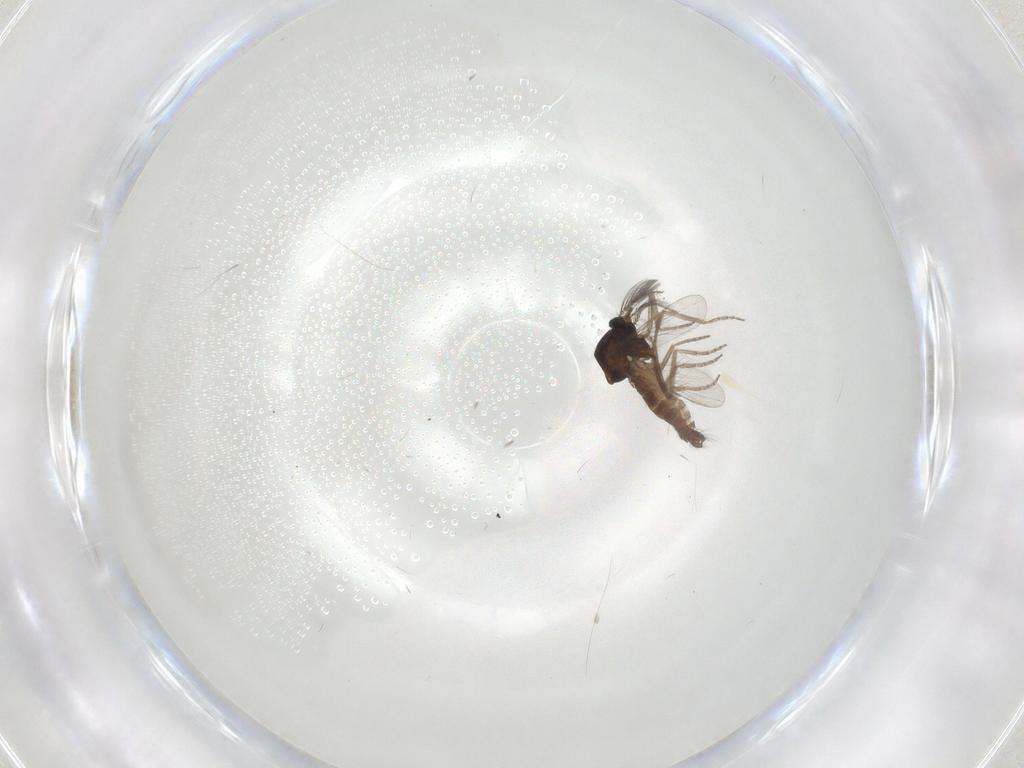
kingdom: Animalia
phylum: Arthropoda
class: Insecta
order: Diptera
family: Ceratopogonidae
